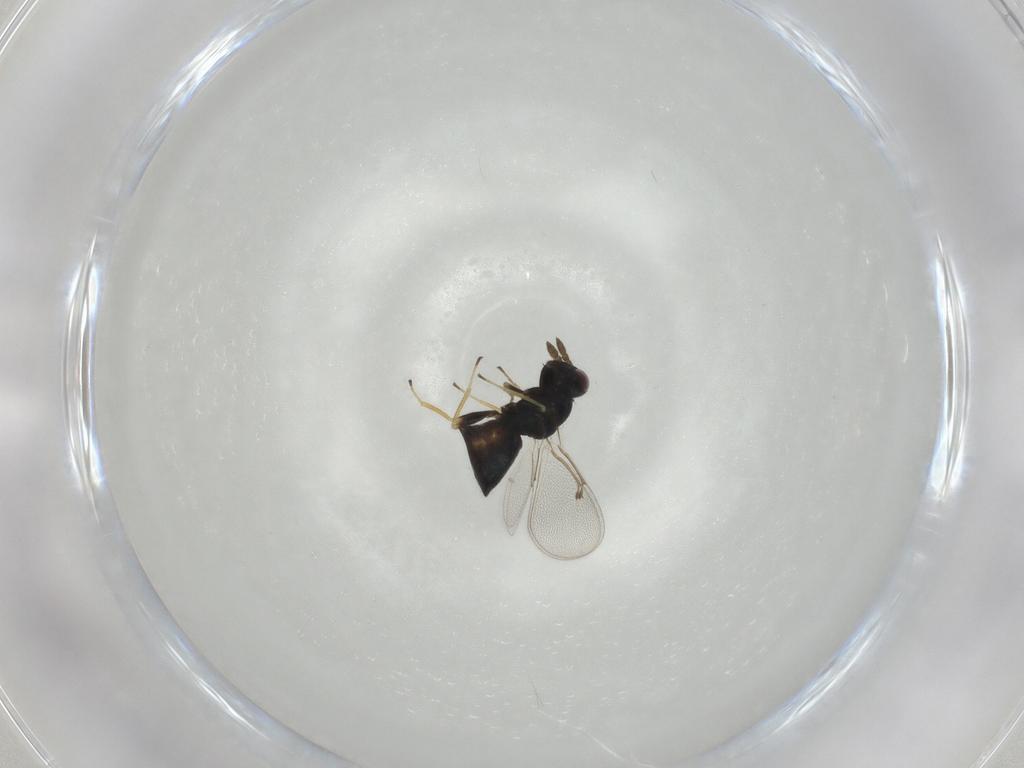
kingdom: Animalia
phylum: Arthropoda
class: Insecta
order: Hymenoptera
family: Eulophidae
